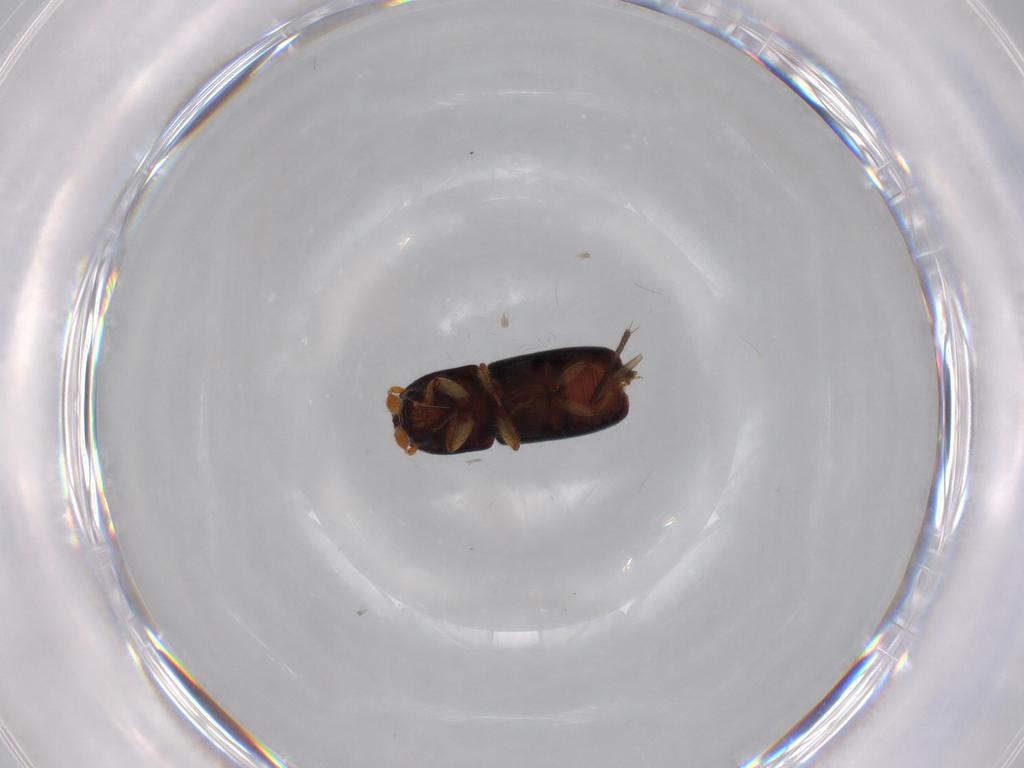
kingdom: Animalia
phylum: Arthropoda
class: Insecta
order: Coleoptera
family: Curculionidae
